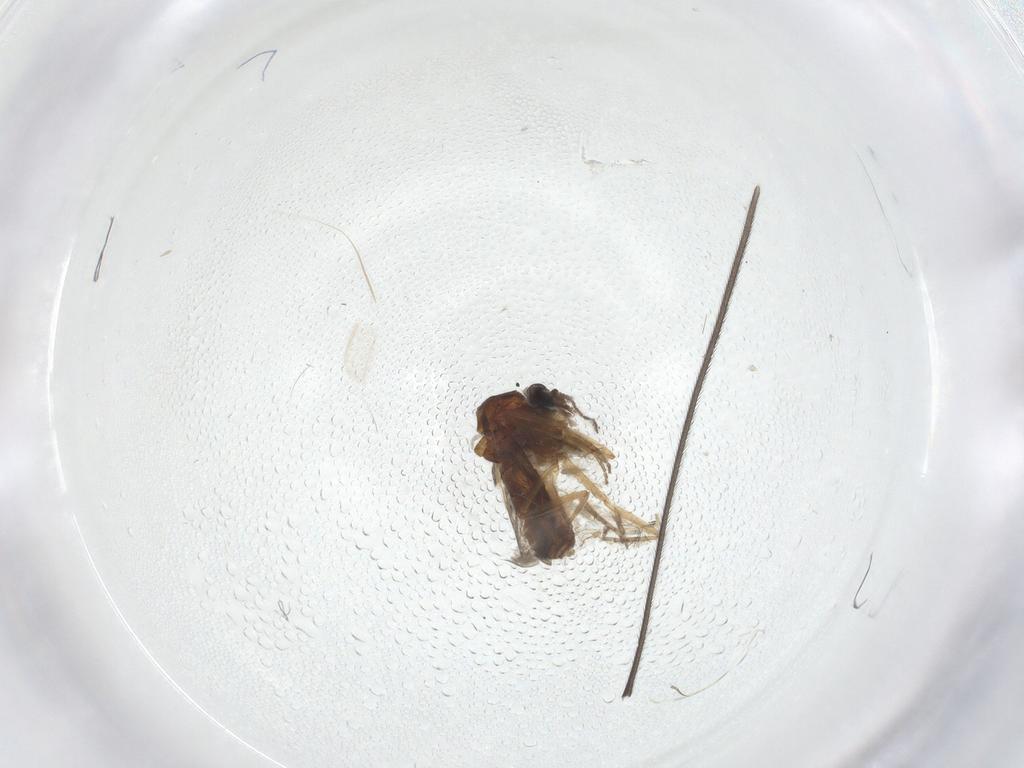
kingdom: Animalia
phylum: Arthropoda
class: Insecta
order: Diptera
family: Ceratopogonidae
